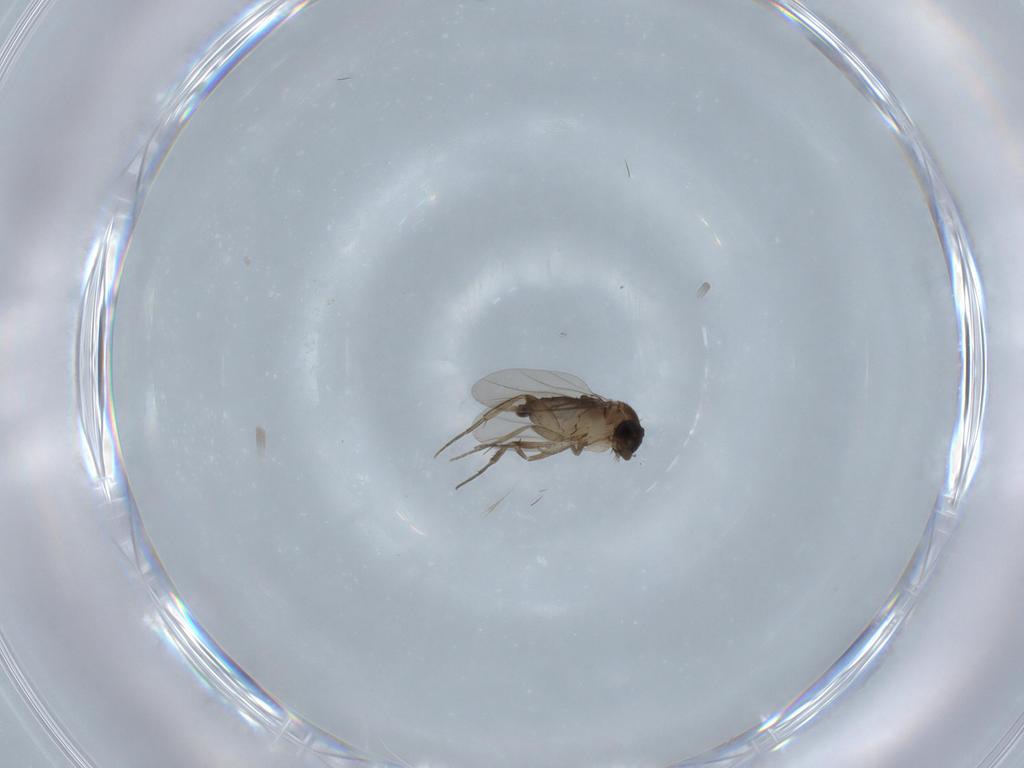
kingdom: Animalia
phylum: Arthropoda
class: Insecta
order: Diptera
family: Phoridae
